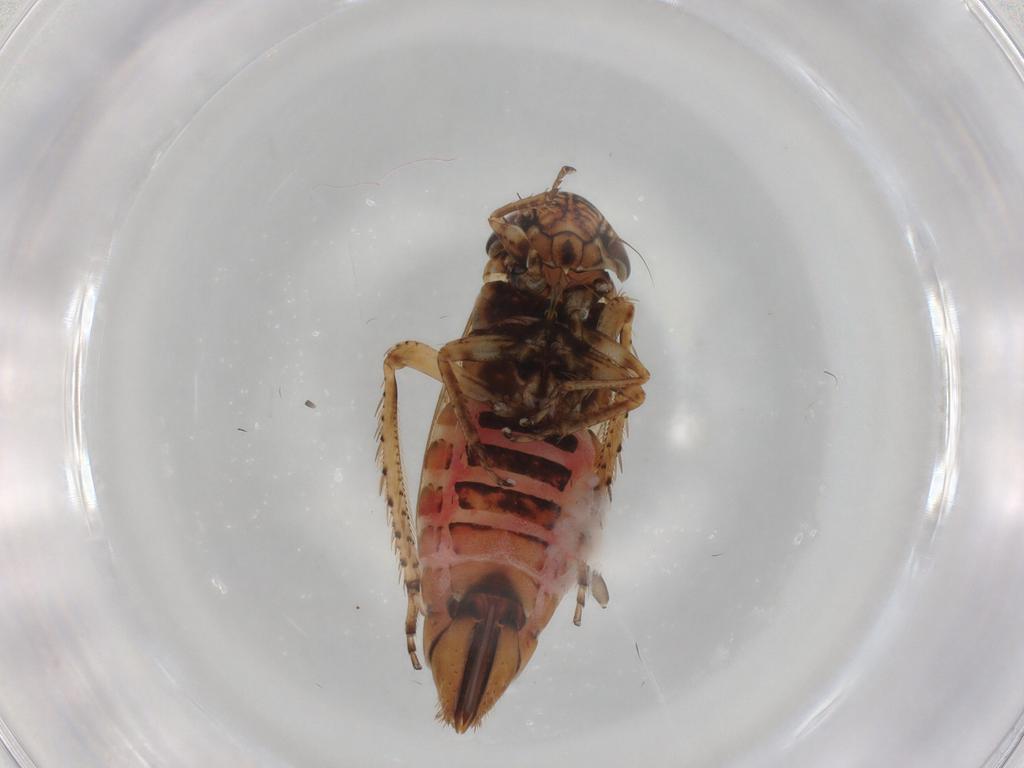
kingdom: Animalia
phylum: Arthropoda
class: Insecta
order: Hemiptera
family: Cicadellidae
